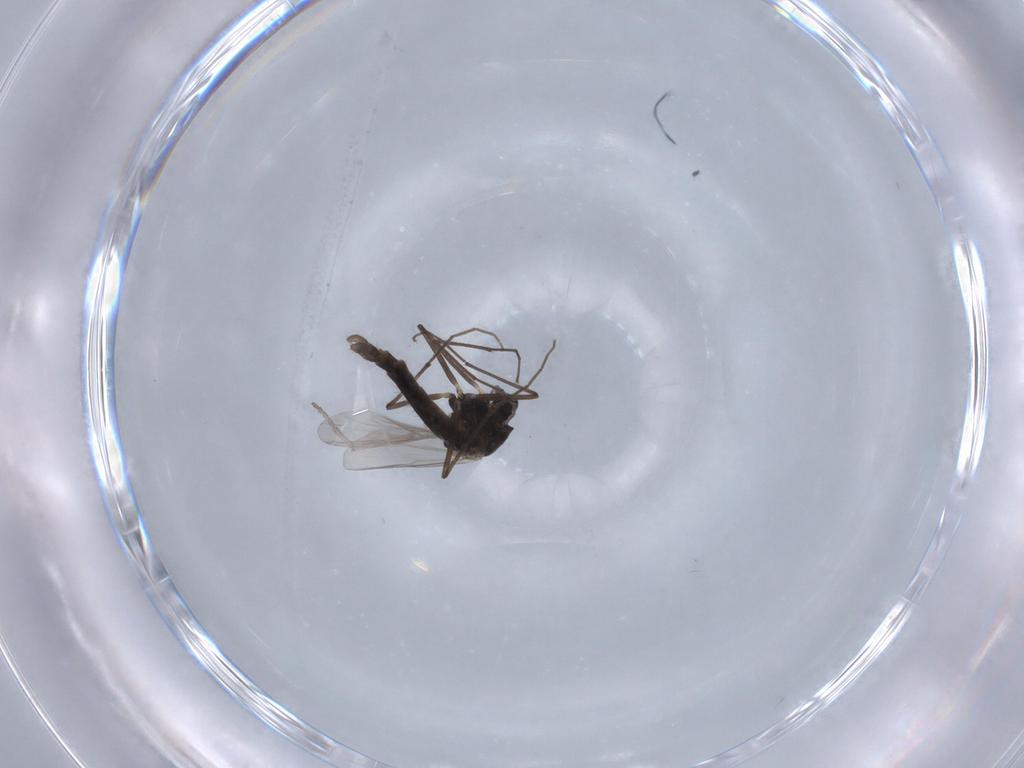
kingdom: Animalia
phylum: Arthropoda
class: Insecta
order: Diptera
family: Chironomidae
